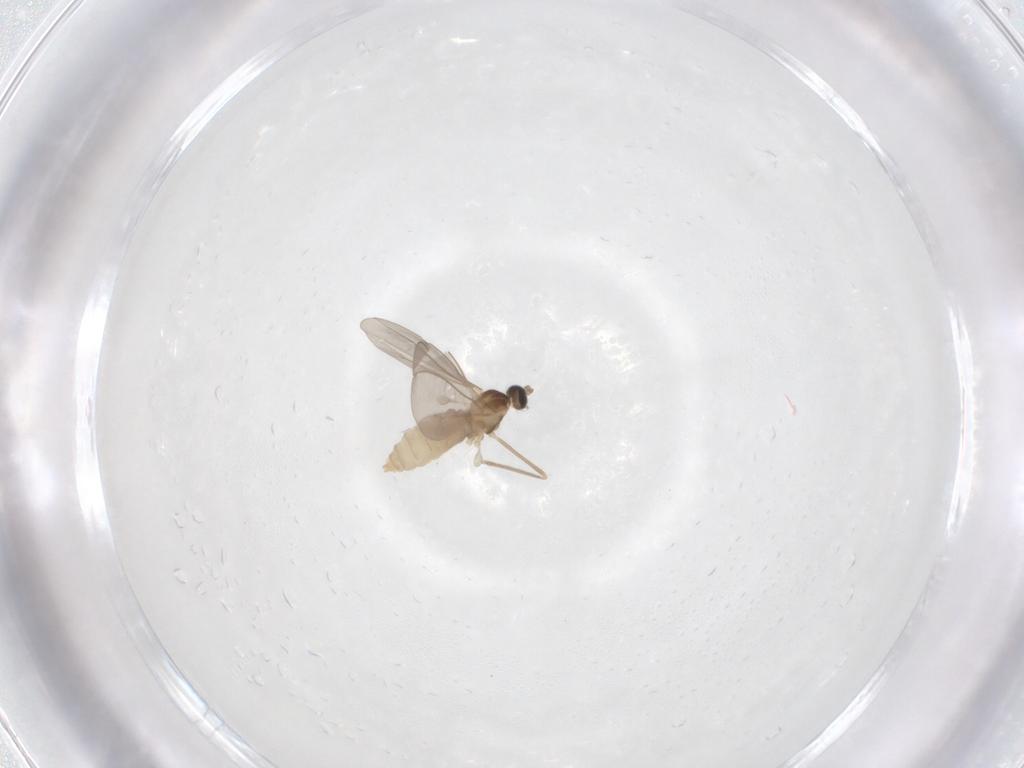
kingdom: Animalia
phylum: Arthropoda
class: Insecta
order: Diptera
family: Cecidomyiidae
